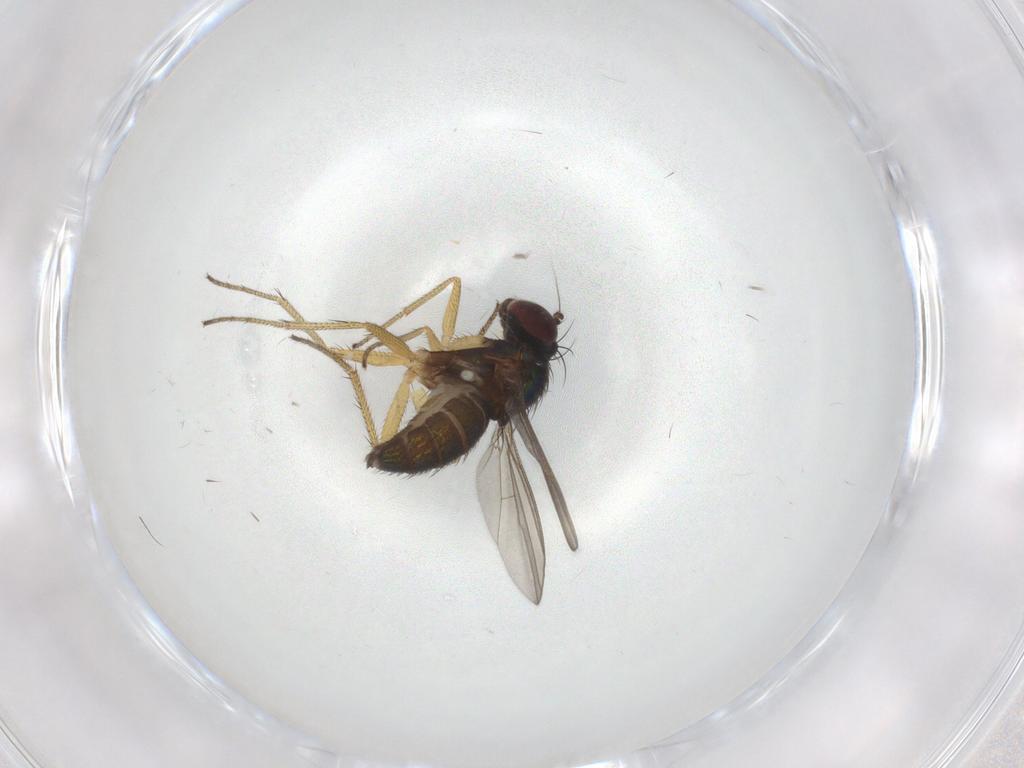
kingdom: Animalia
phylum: Arthropoda
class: Insecta
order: Diptera
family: Dolichopodidae
